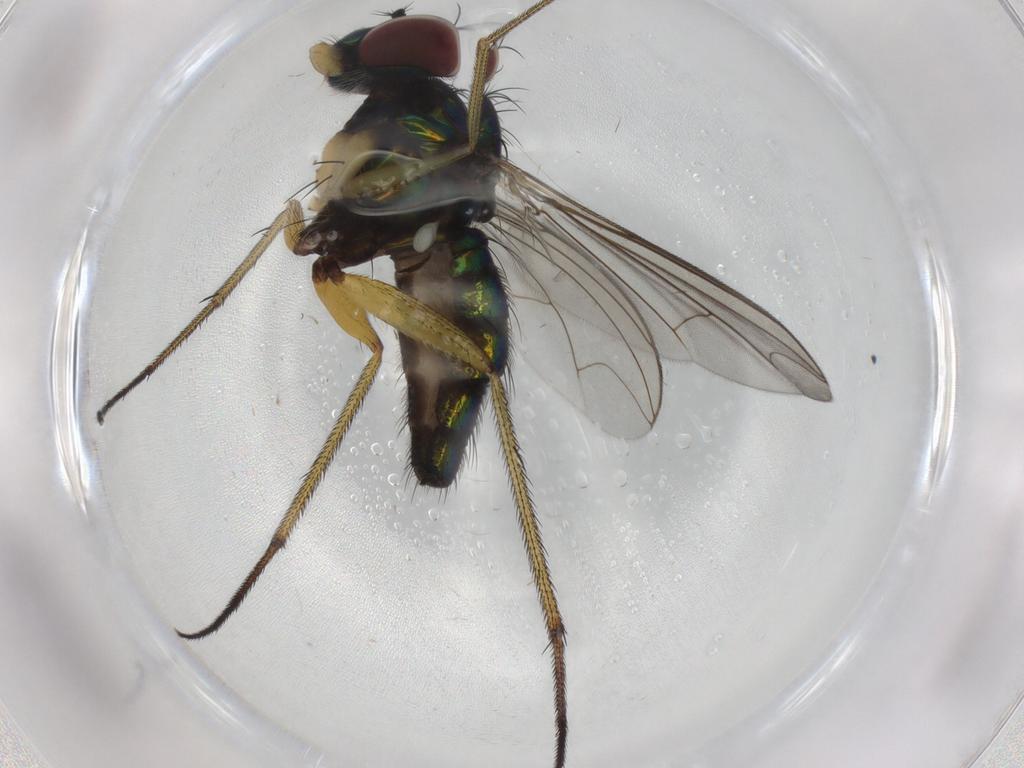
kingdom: Animalia
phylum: Arthropoda
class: Insecta
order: Diptera
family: Dolichopodidae
